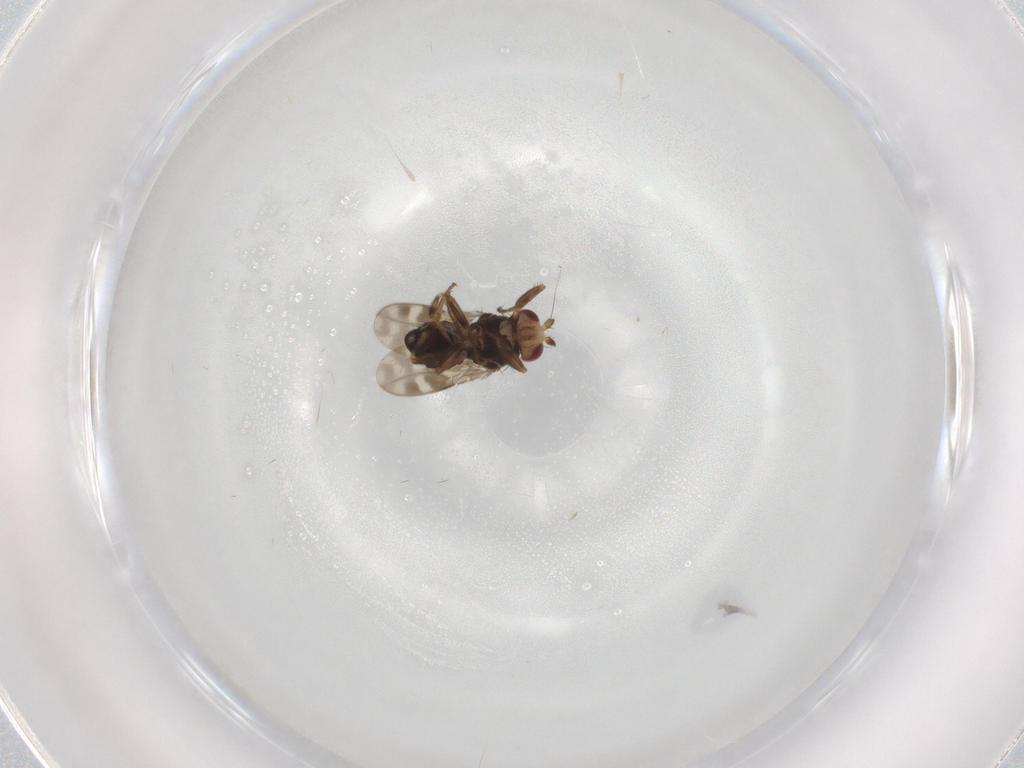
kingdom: Animalia
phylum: Arthropoda
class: Insecta
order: Diptera
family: Sphaeroceridae
